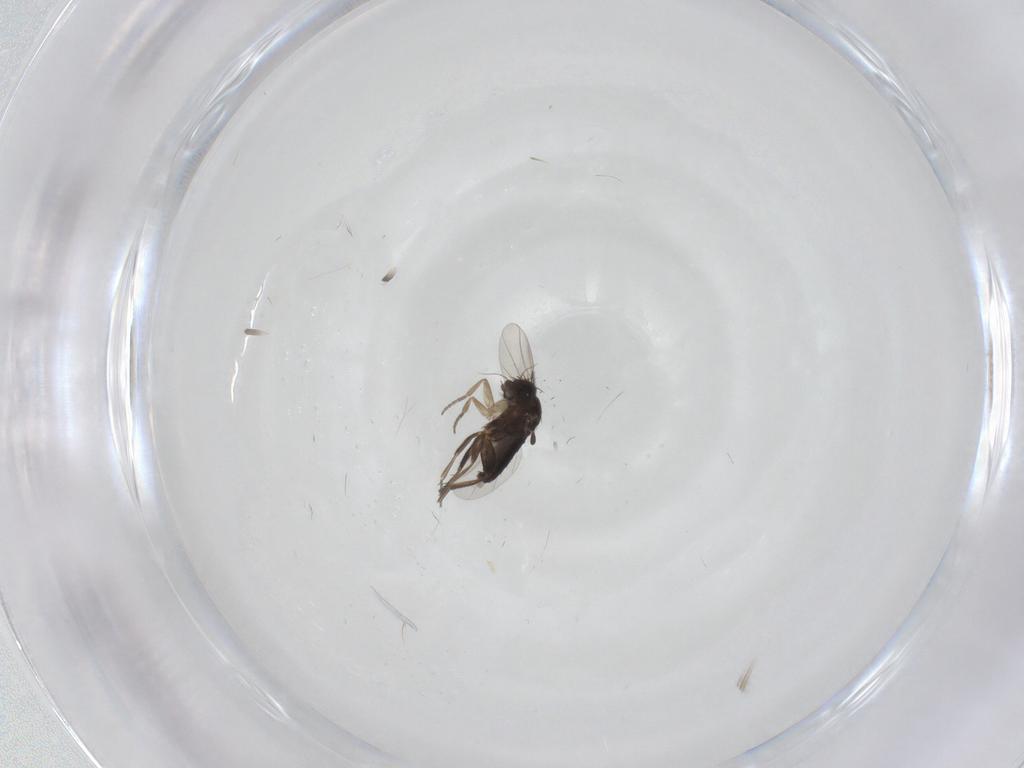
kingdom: Animalia
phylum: Arthropoda
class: Insecta
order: Diptera
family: Phoridae
